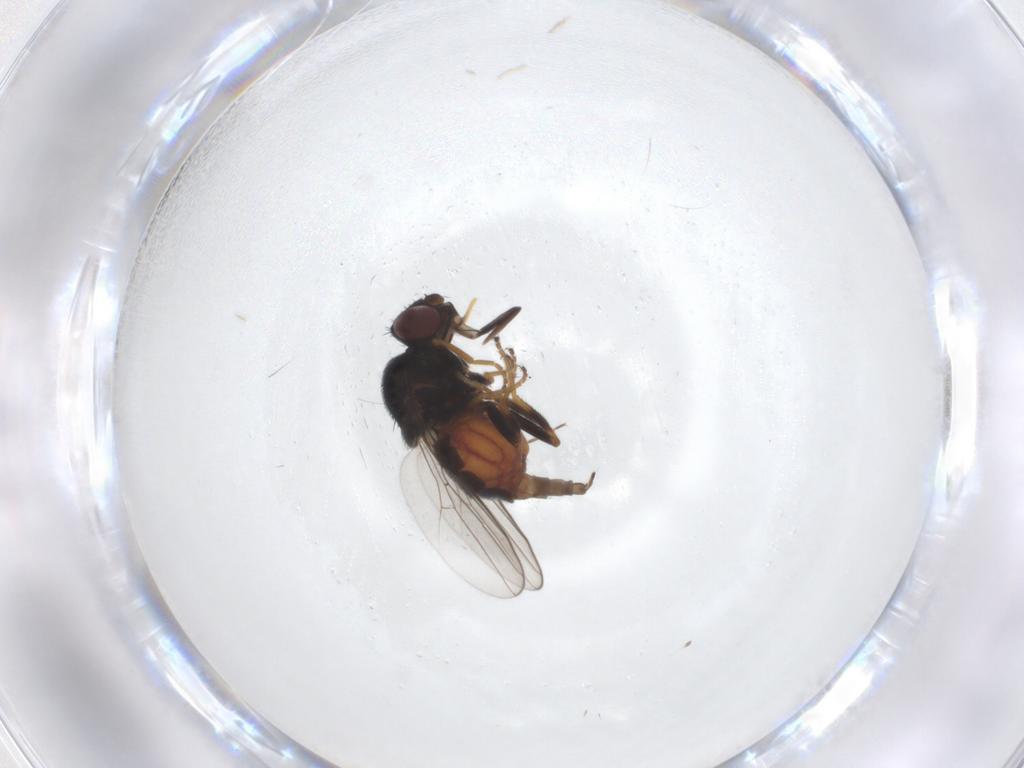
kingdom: Animalia
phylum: Arthropoda
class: Insecta
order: Diptera
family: Chloropidae
